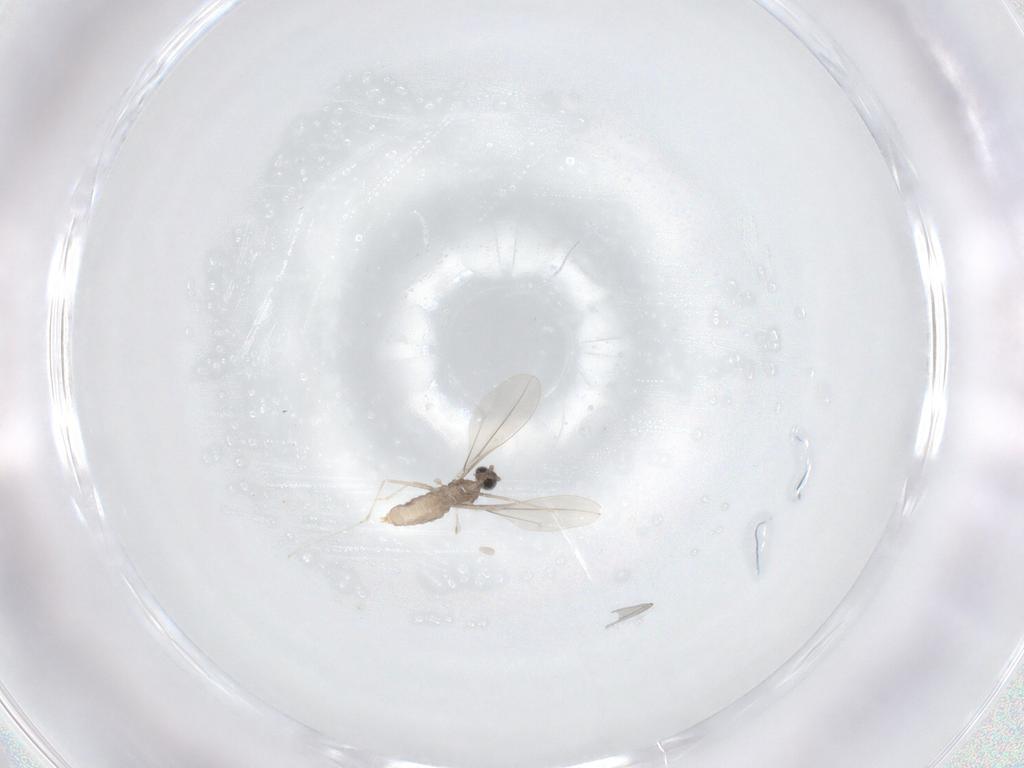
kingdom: Animalia
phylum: Arthropoda
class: Insecta
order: Diptera
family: Cecidomyiidae
